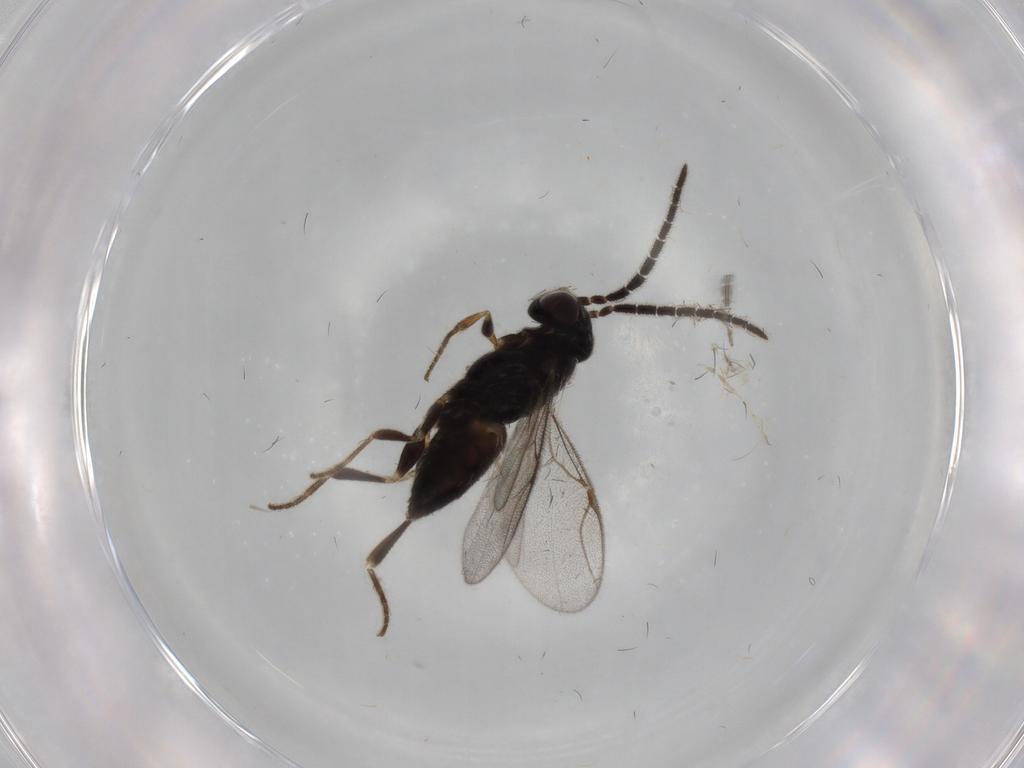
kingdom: Animalia
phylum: Arthropoda
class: Insecta
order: Hymenoptera
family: Dryinidae
